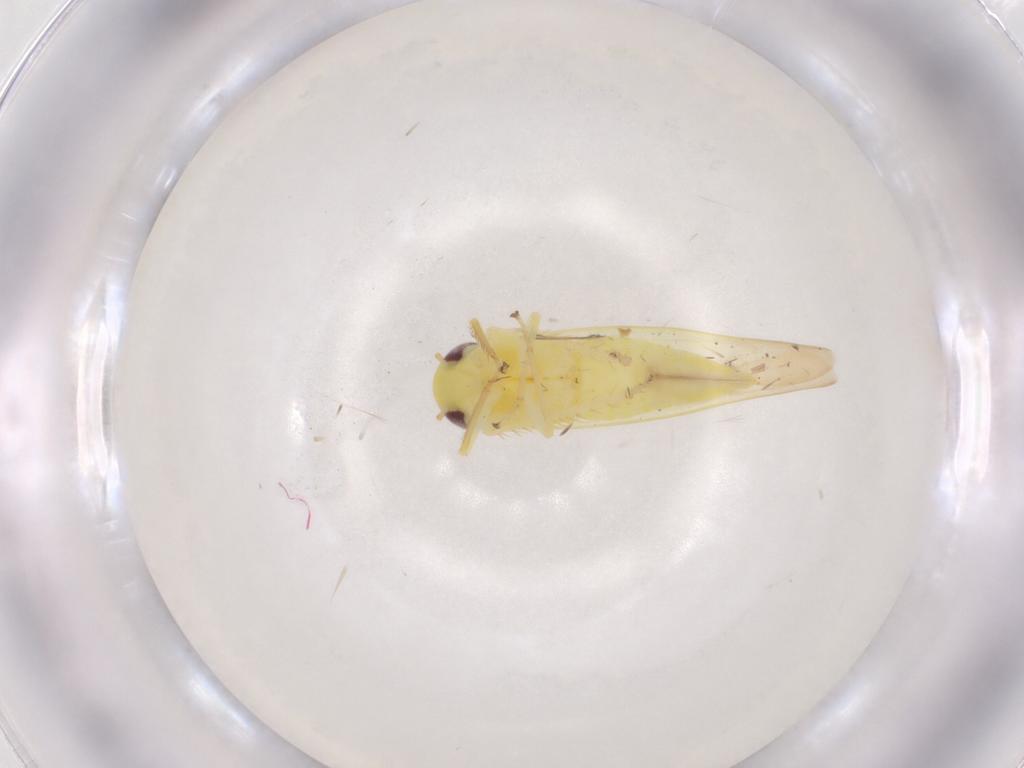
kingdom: Animalia
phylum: Arthropoda
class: Insecta
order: Hemiptera
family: Cicadellidae
